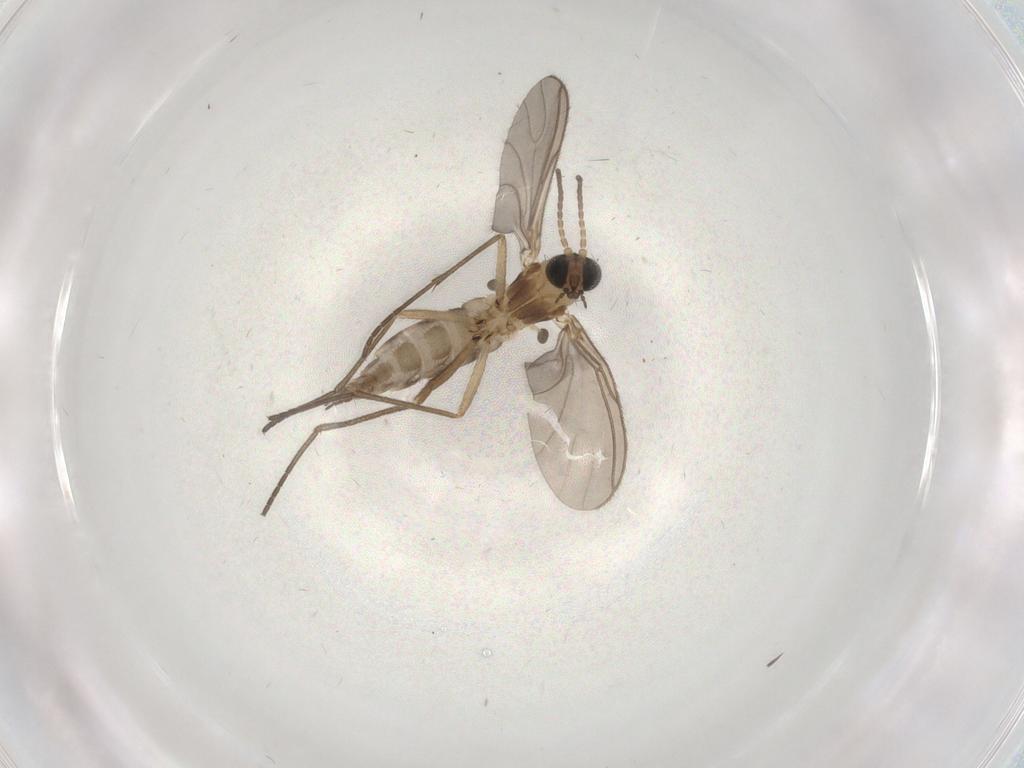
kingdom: Animalia
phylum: Arthropoda
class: Insecta
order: Diptera
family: Sciaridae
